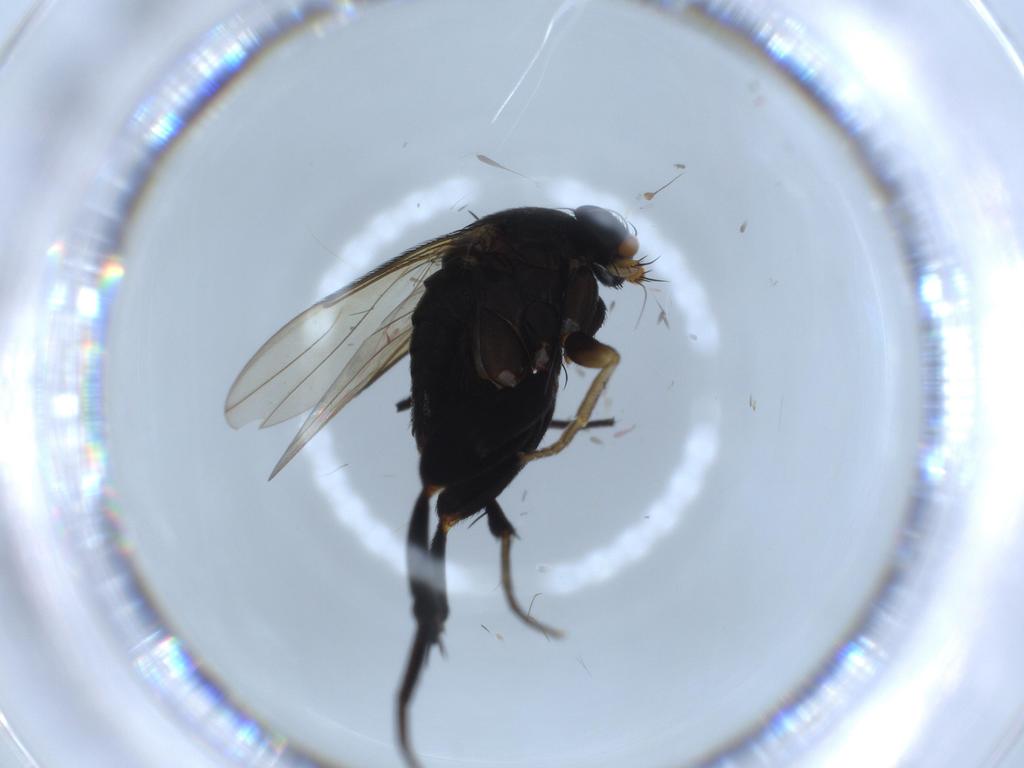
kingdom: Animalia
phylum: Arthropoda
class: Insecta
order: Diptera
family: Phoridae
